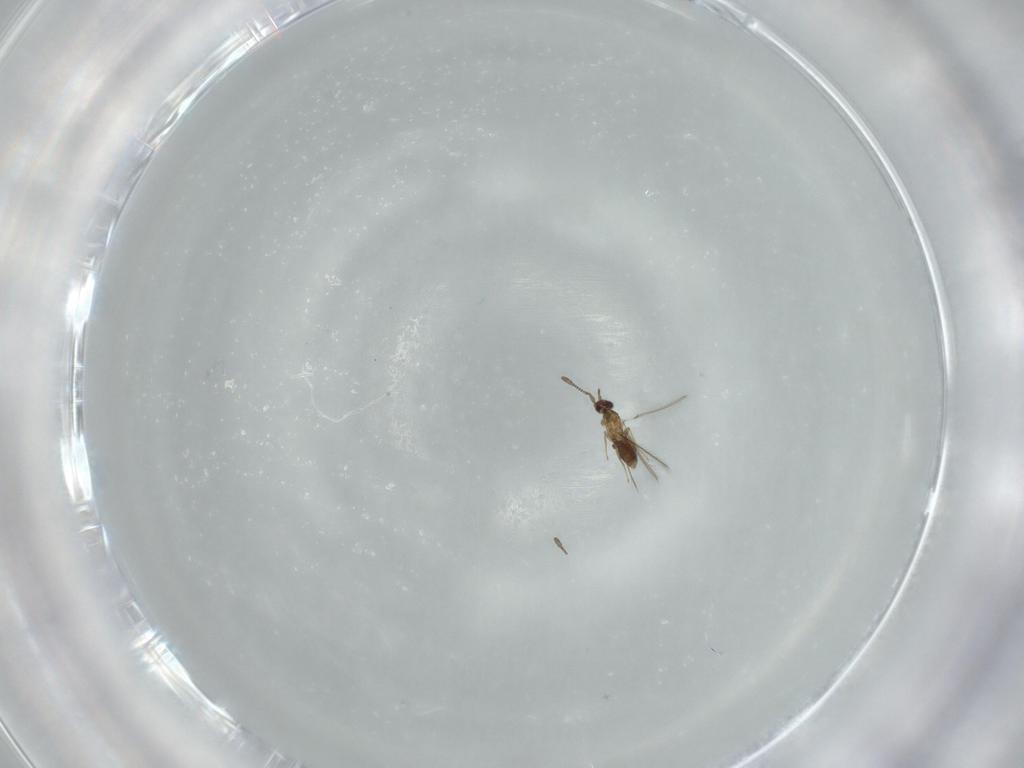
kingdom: Animalia
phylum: Arthropoda
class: Insecta
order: Hymenoptera
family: Mymaridae
